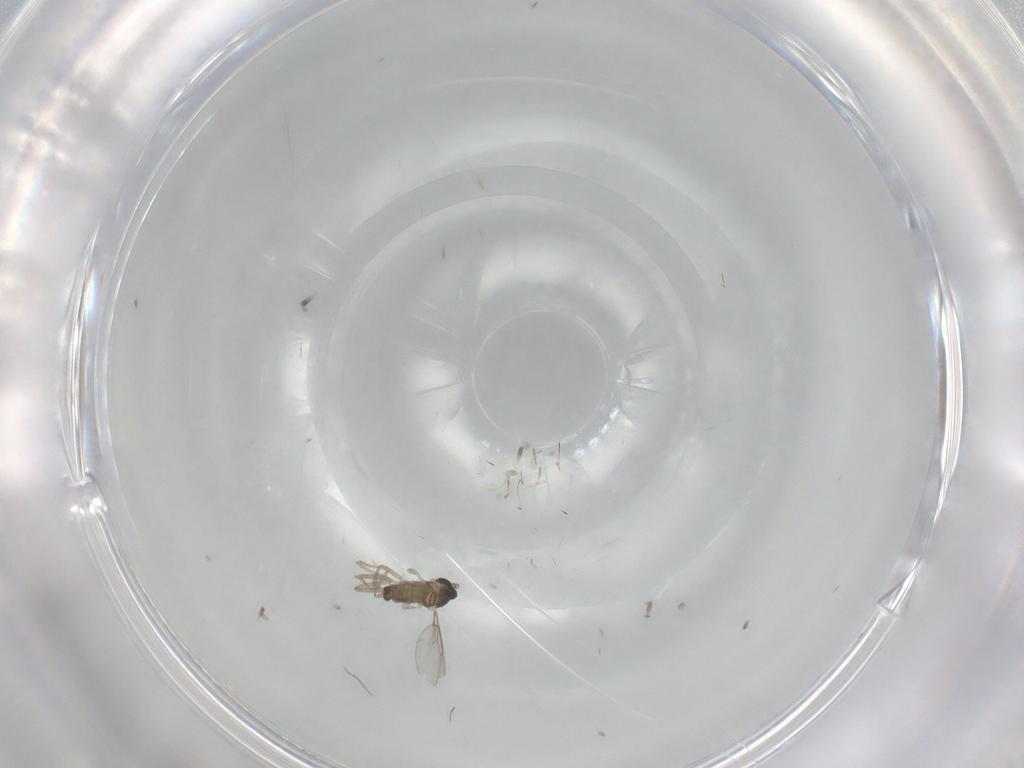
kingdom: Animalia
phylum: Arthropoda
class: Insecta
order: Diptera
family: Cecidomyiidae
